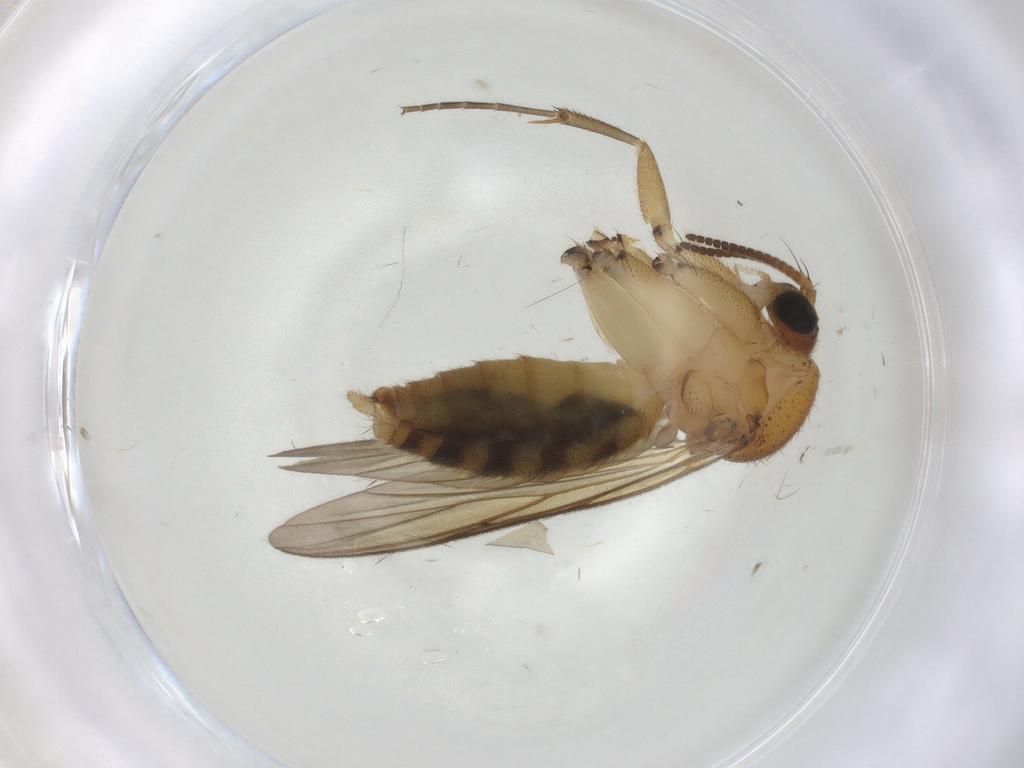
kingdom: Animalia
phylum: Arthropoda
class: Insecta
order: Diptera
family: Ceratopogonidae
